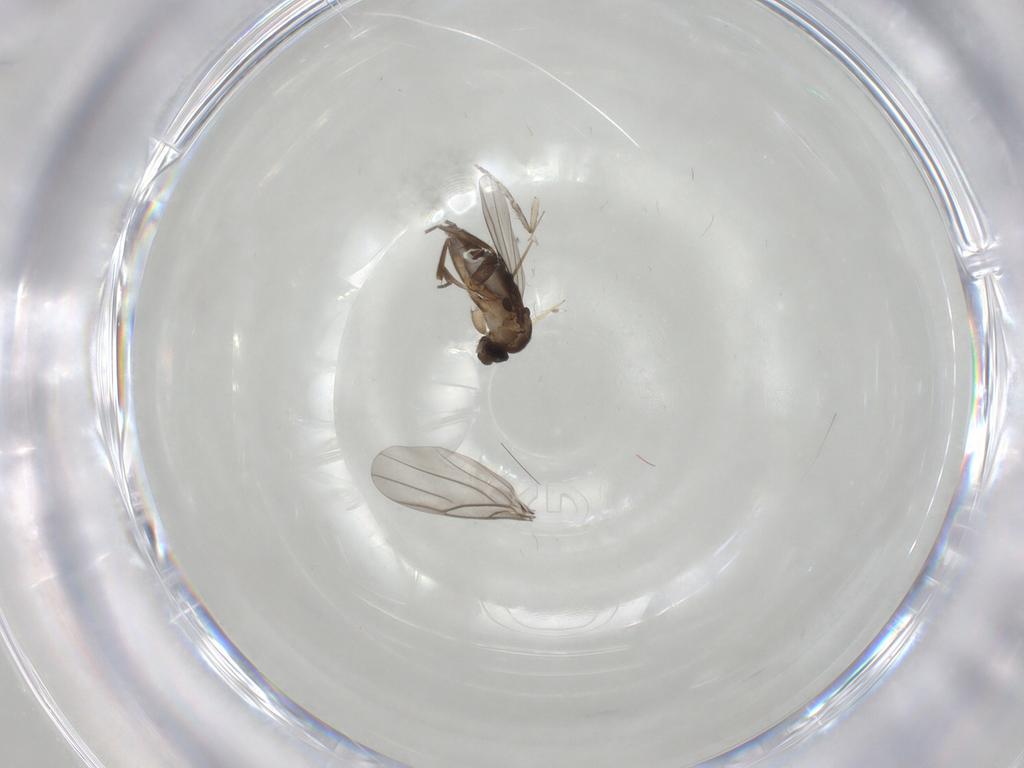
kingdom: Animalia
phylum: Arthropoda
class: Insecta
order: Diptera
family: Phoridae
